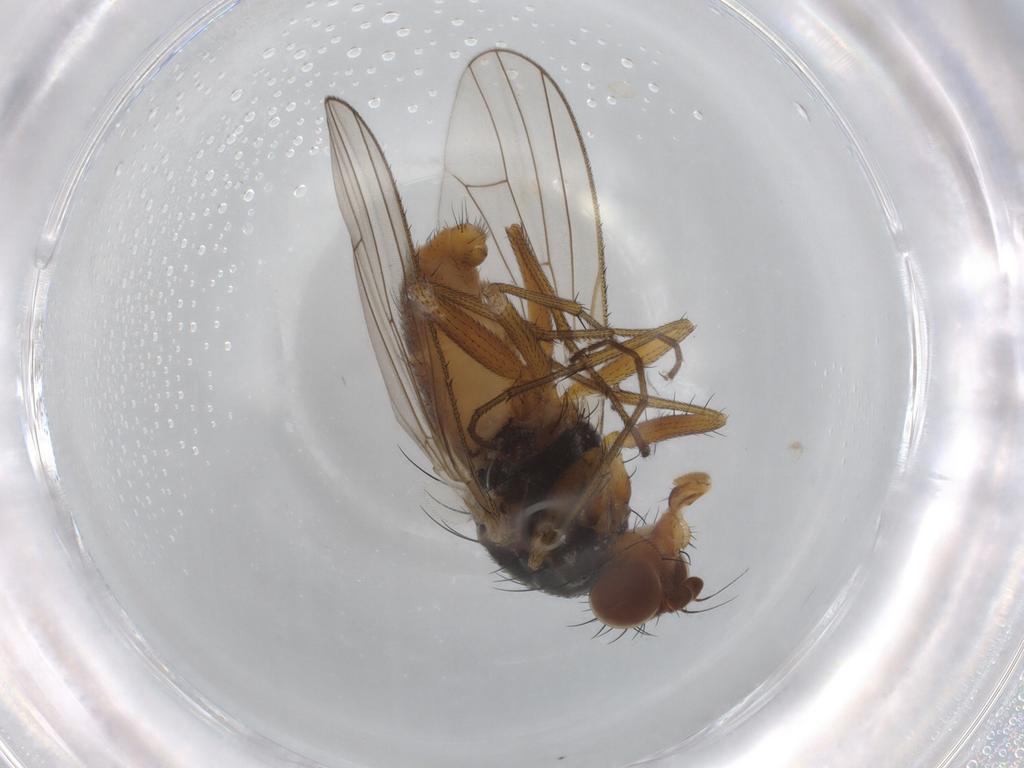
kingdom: Animalia
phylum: Arthropoda
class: Insecta
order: Diptera
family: Heleomyzidae
